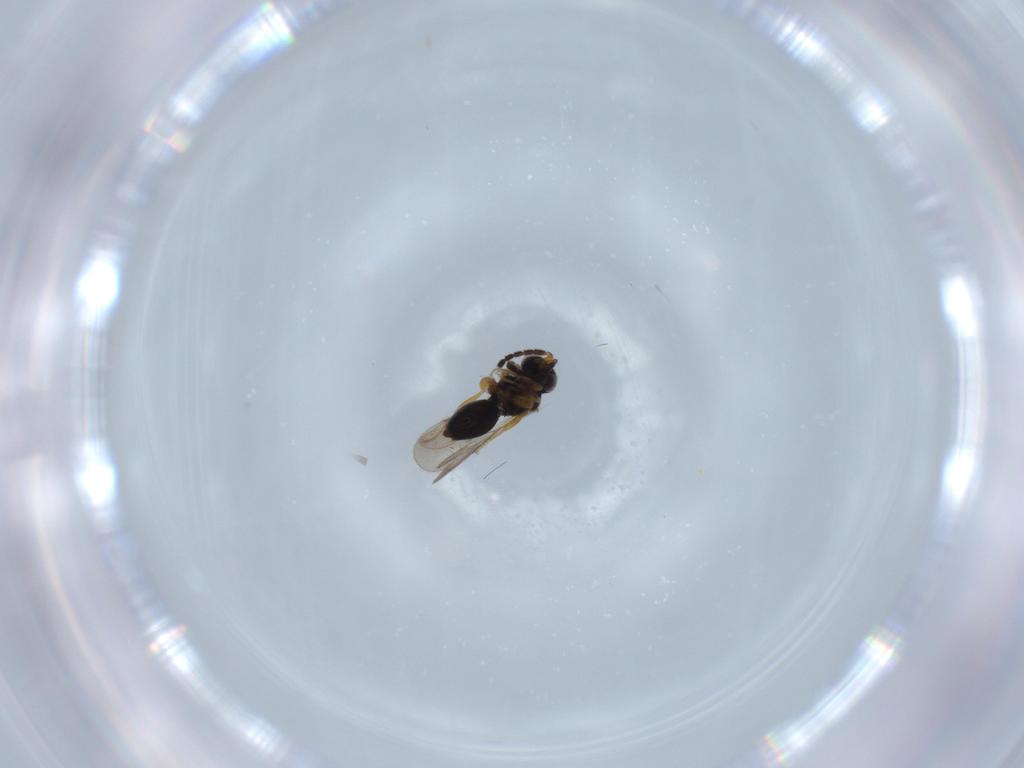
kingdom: Animalia
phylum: Arthropoda
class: Insecta
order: Hymenoptera
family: Ceraphronidae
